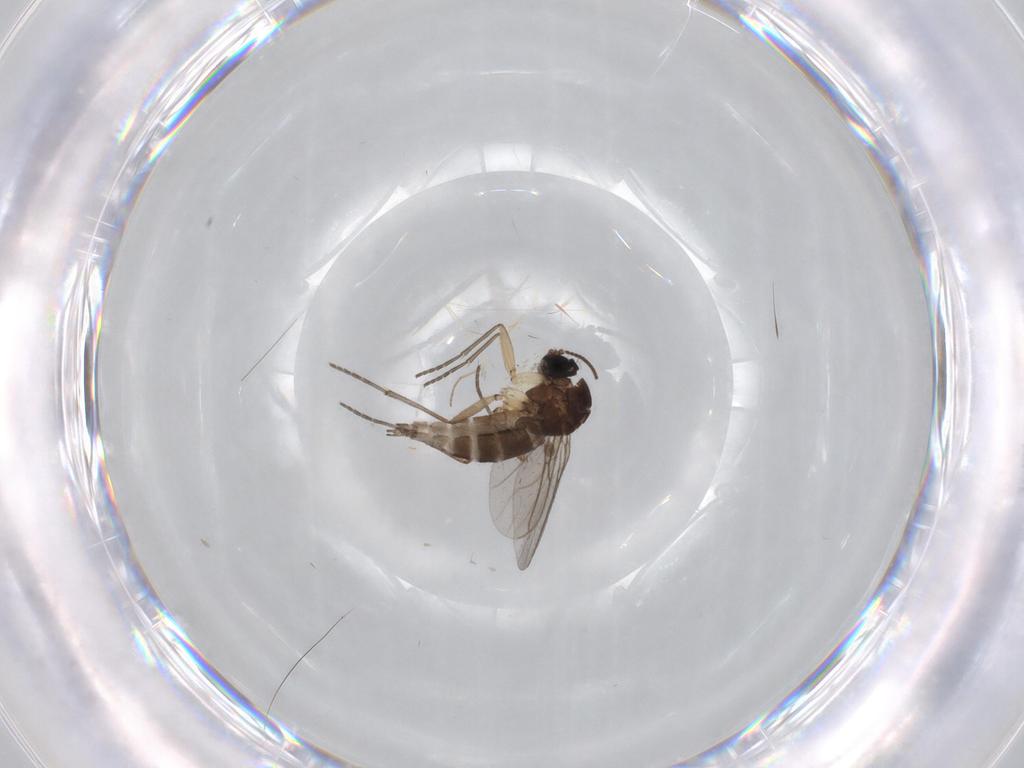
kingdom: Animalia
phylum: Arthropoda
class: Insecta
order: Diptera
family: Sciaridae
